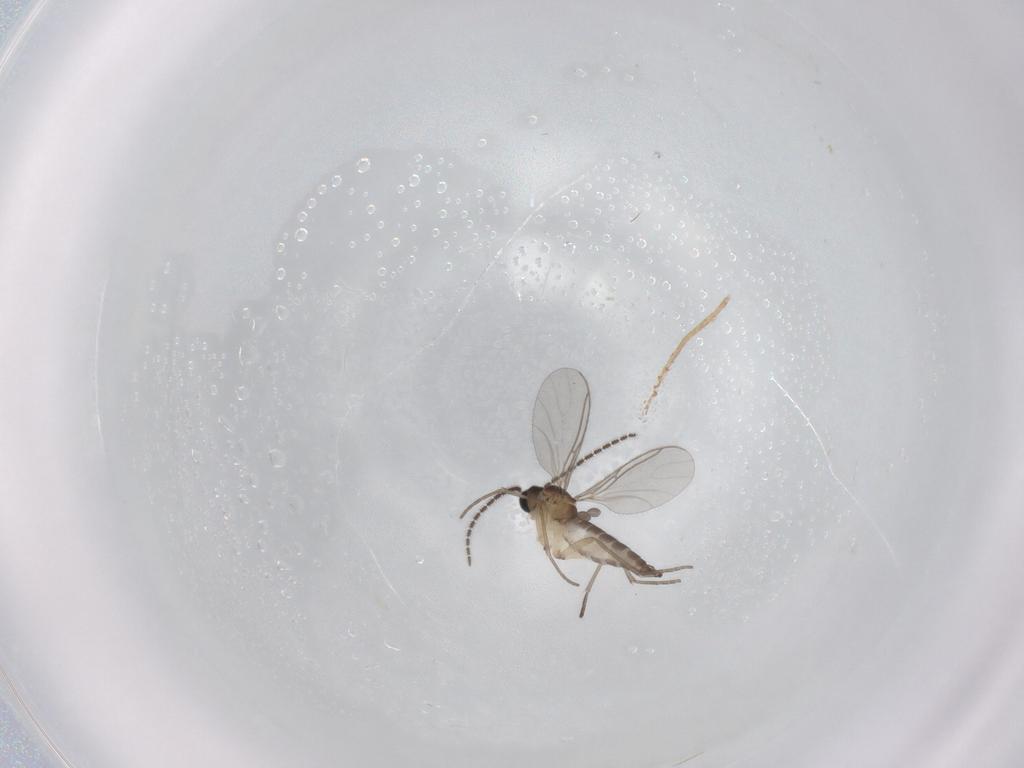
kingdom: Animalia
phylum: Arthropoda
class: Insecta
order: Diptera
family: Sciaridae
